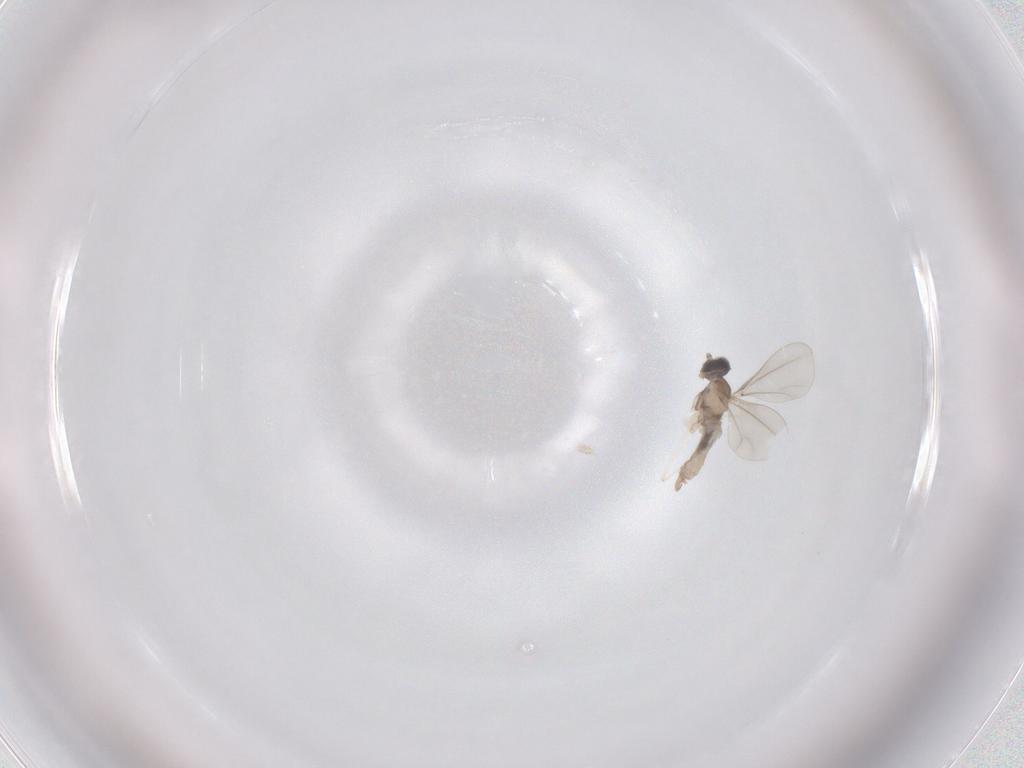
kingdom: Animalia
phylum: Arthropoda
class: Insecta
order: Diptera
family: Cecidomyiidae
